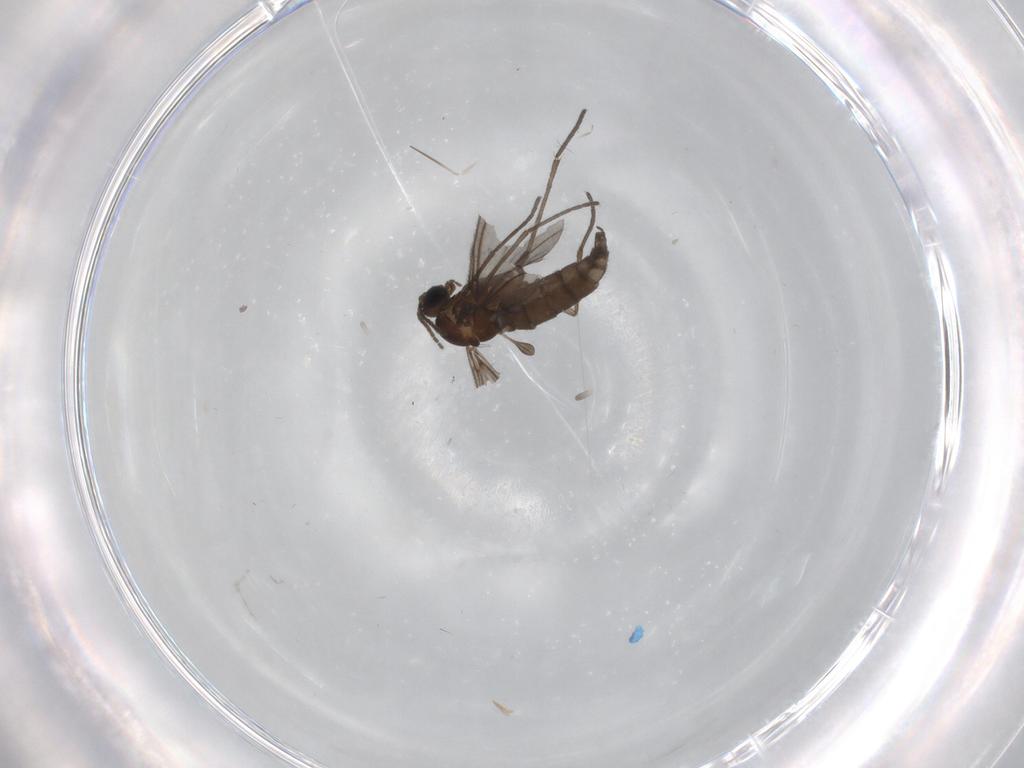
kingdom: Animalia
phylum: Arthropoda
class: Insecta
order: Diptera
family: Sciaridae
